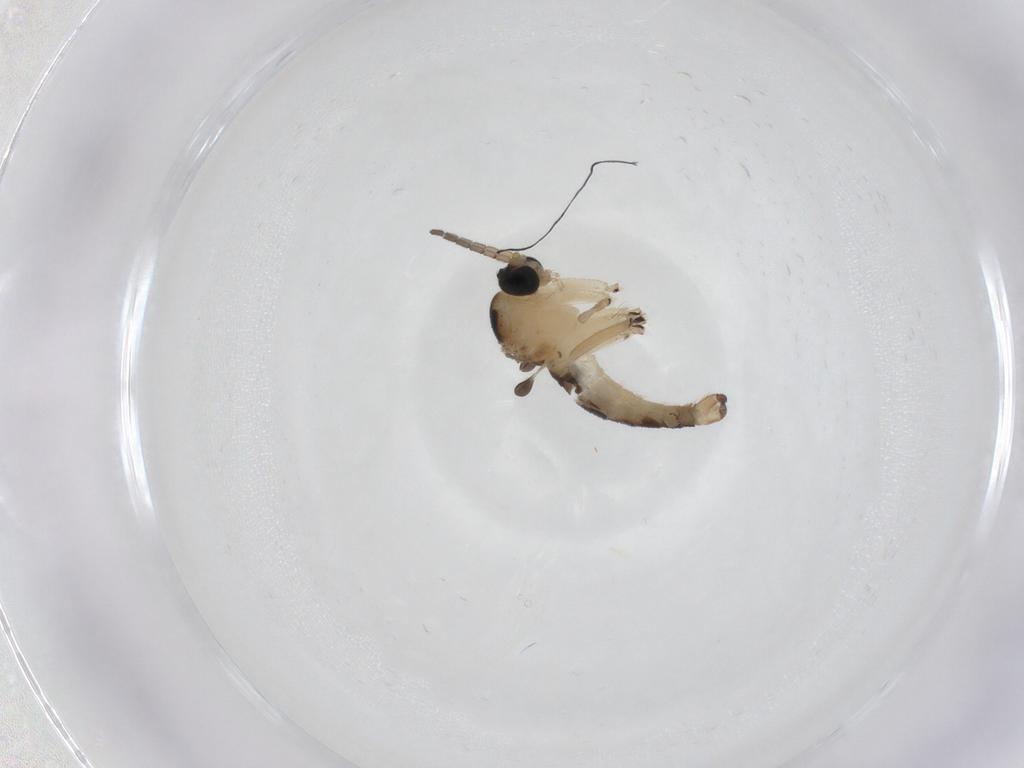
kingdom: Animalia
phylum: Arthropoda
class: Insecta
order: Diptera
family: Sciaridae
